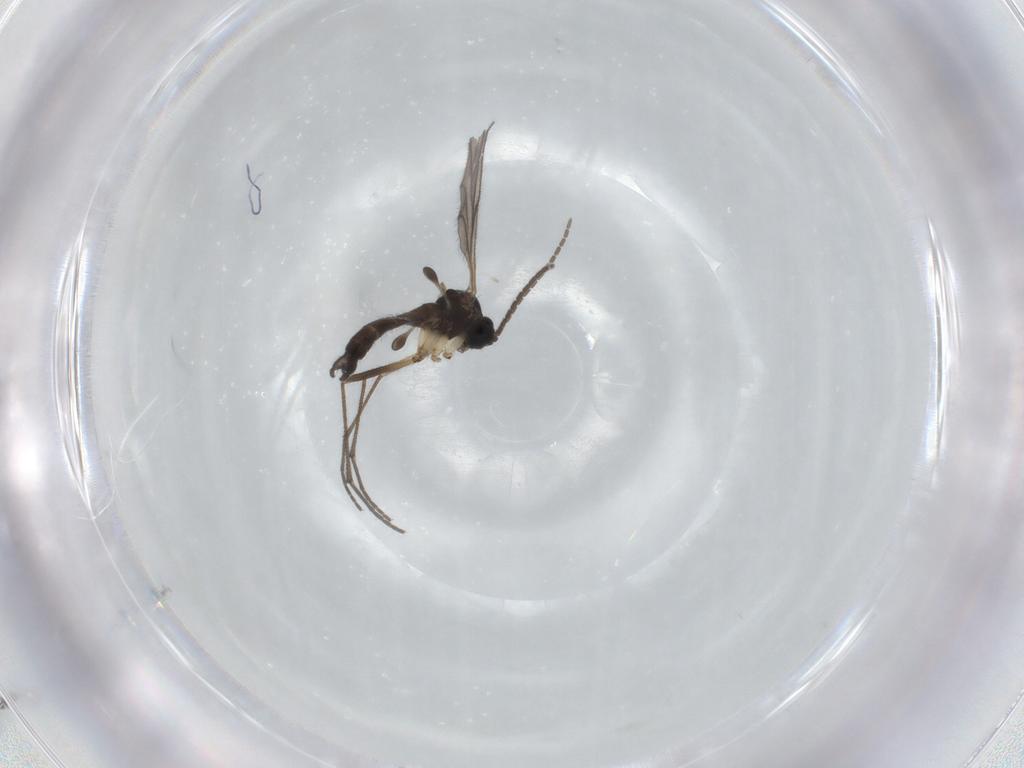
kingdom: Animalia
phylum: Arthropoda
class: Insecta
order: Diptera
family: Sciaridae
